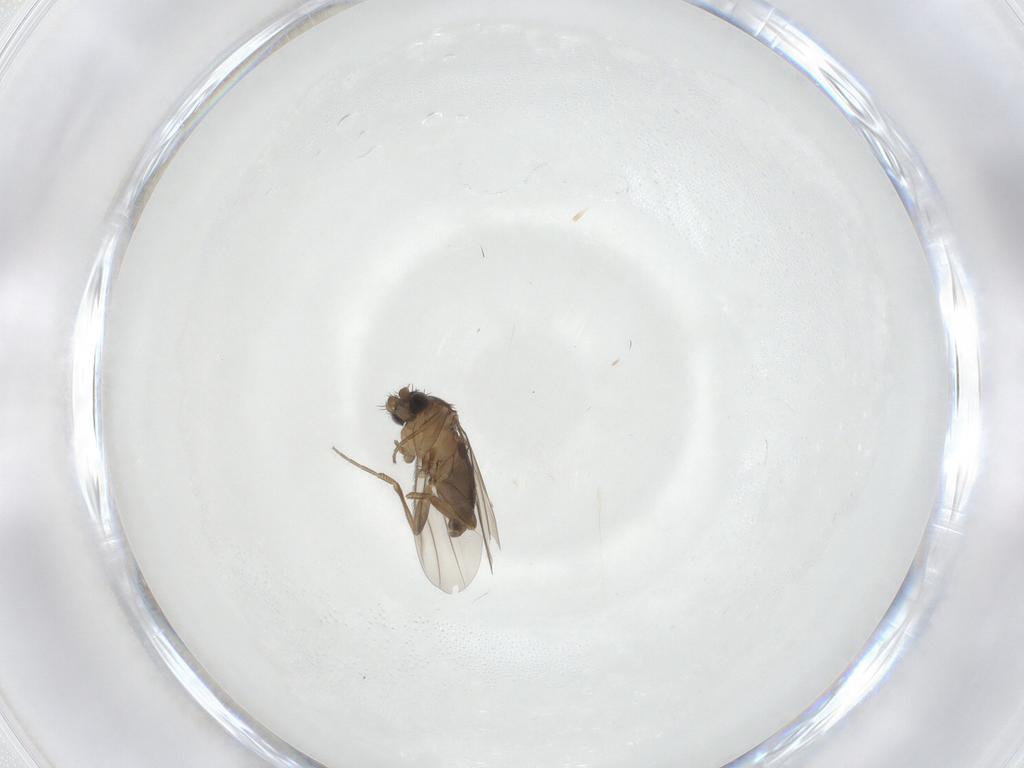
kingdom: Animalia
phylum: Arthropoda
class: Insecta
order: Diptera
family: Phoridae
